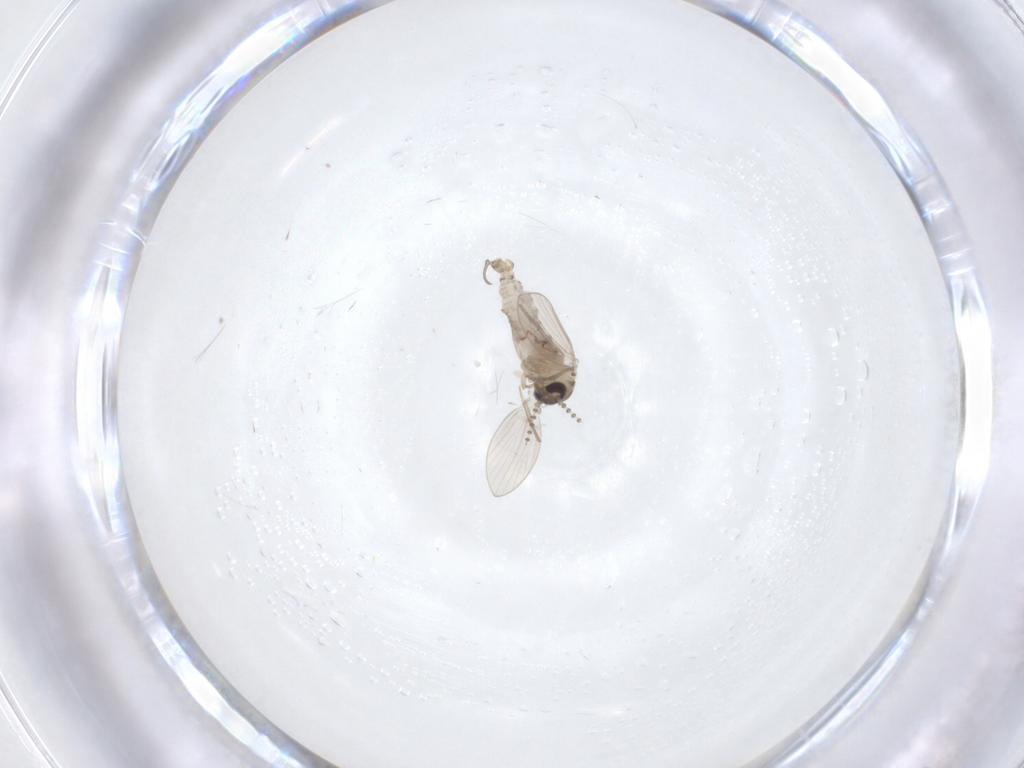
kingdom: Animalia
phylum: Arthropoda
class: Insecta
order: Diptera
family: Psychodidae
